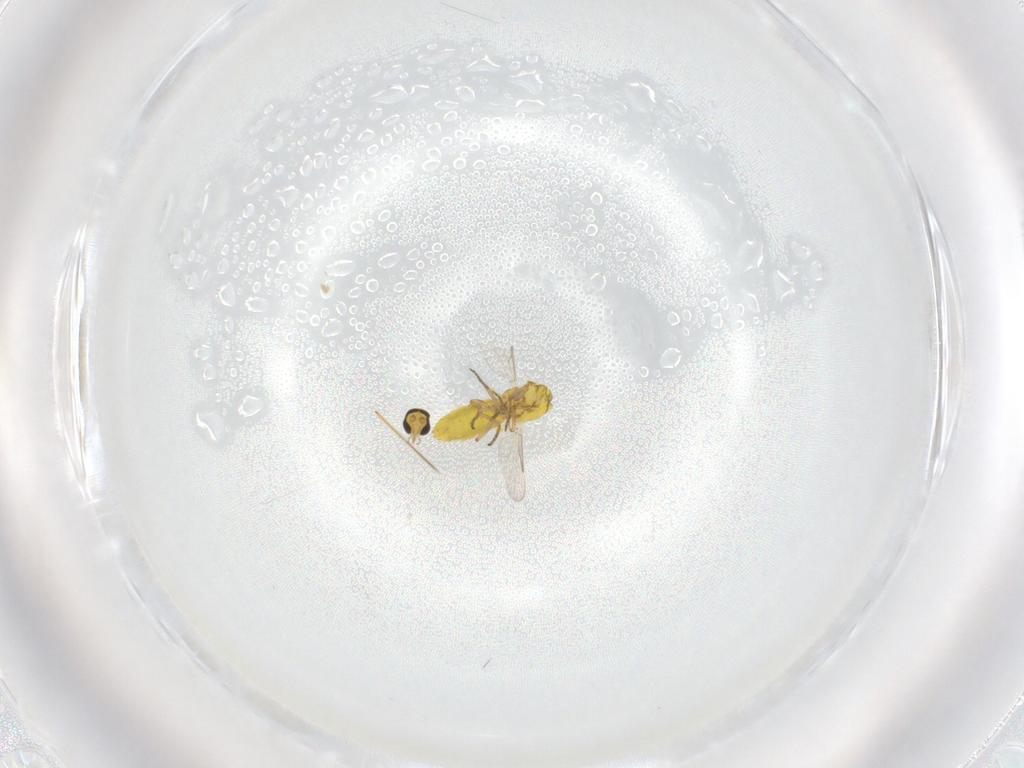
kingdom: Animalia
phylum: Arthropoda
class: Insecta
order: Diptera
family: Ceratopogonidae
